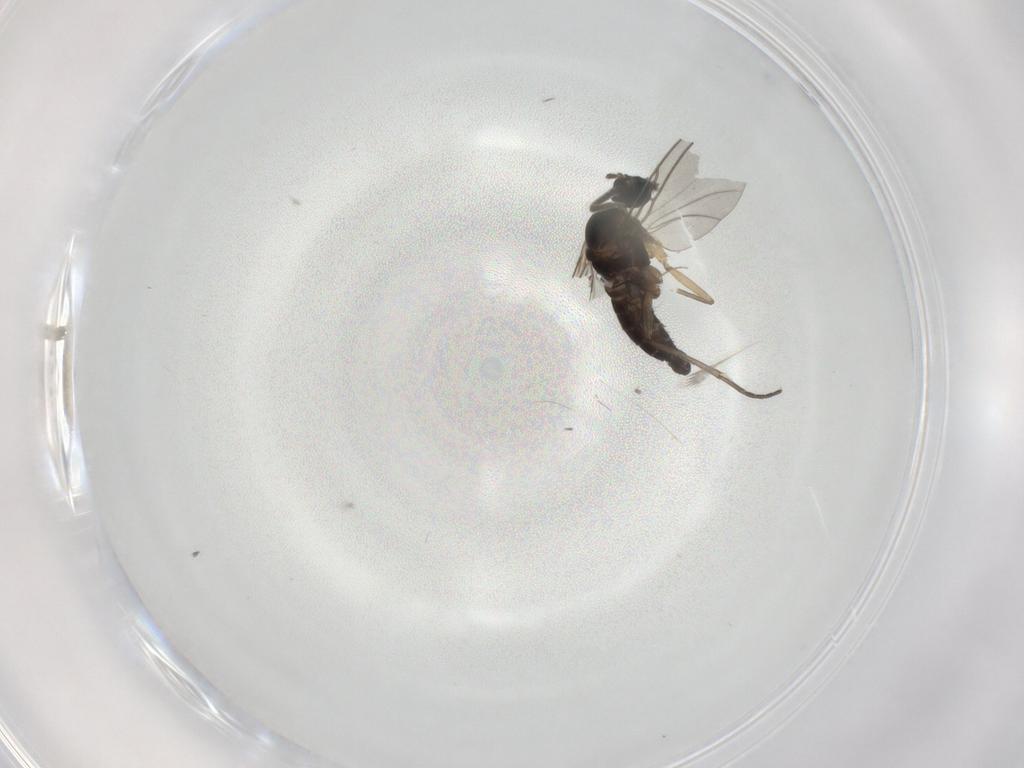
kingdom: Animalia
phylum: Arthropoda
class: Insecta
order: Diptera
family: Sciaridae
